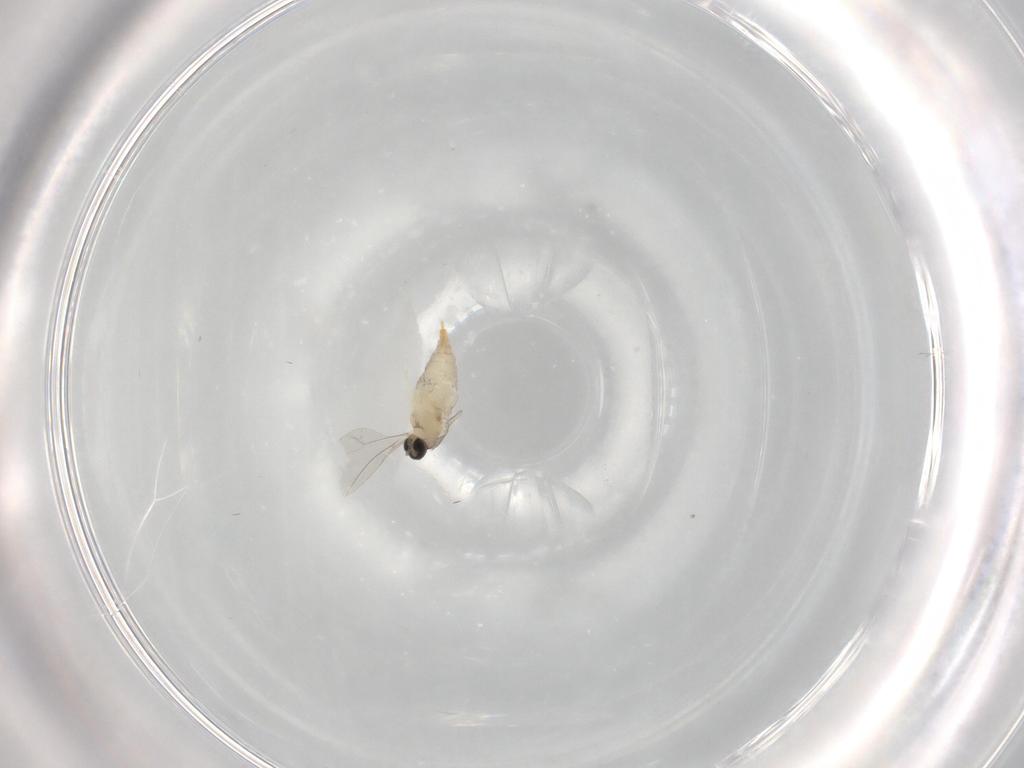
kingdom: Animalia
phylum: Arthropoda
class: Insecta
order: Diptera
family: Cecidomyiidae
